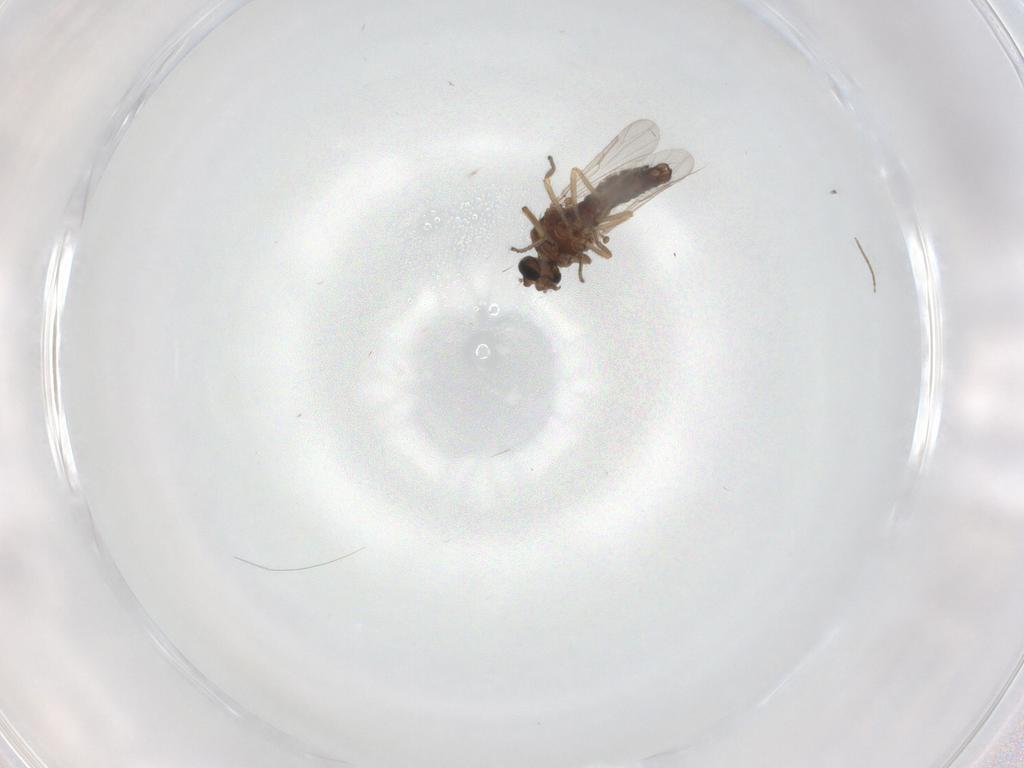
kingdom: Animalia
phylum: Arthropoda
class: Insecta
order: Diptera
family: Ceratopogonidae
